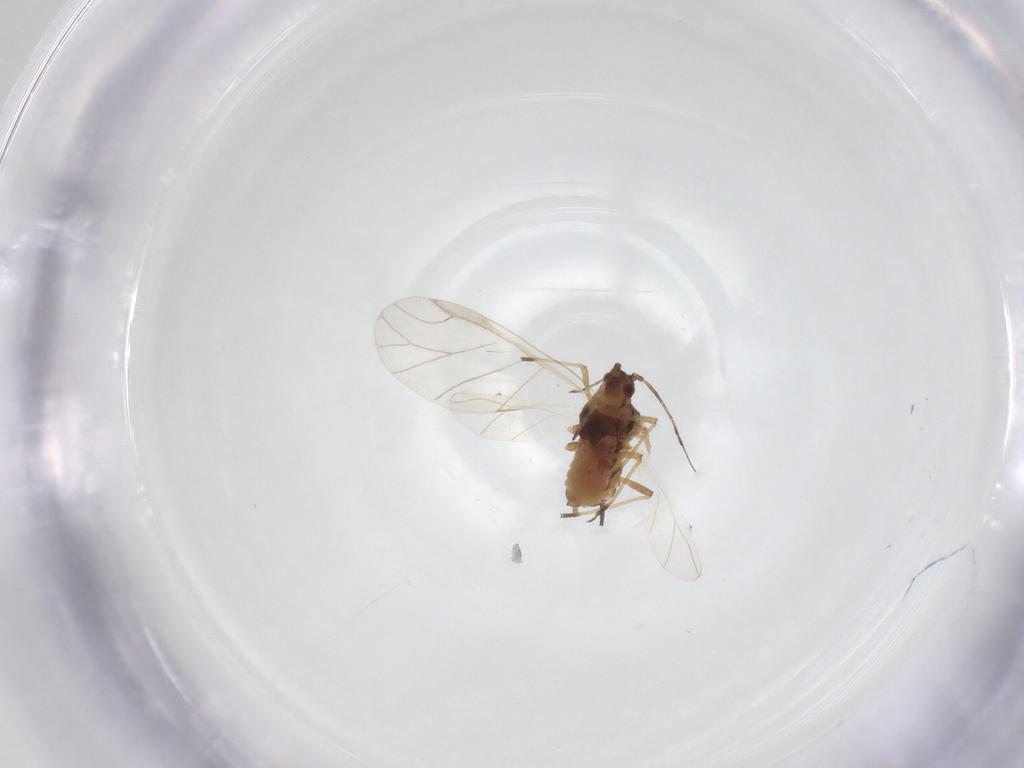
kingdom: Animalia
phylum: Arthropoda
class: Insecta
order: Hemiptera
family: Aphididae
